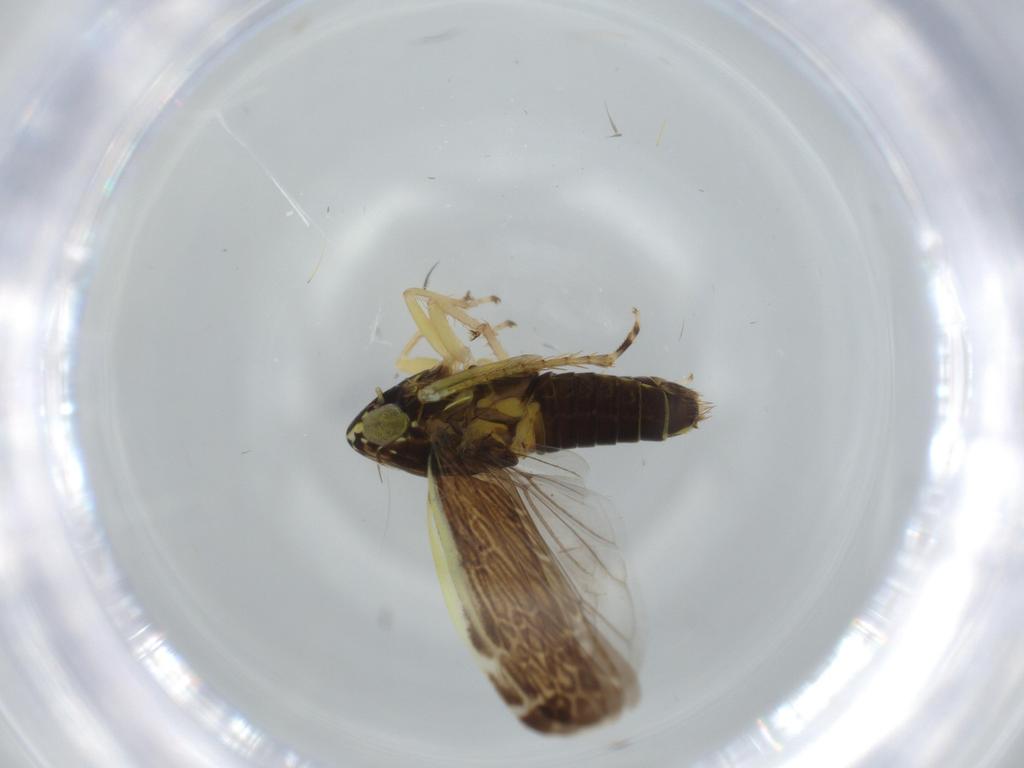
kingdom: Animalia
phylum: Arthropoda
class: Insecta
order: Hemiptera
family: Cicadellidae
